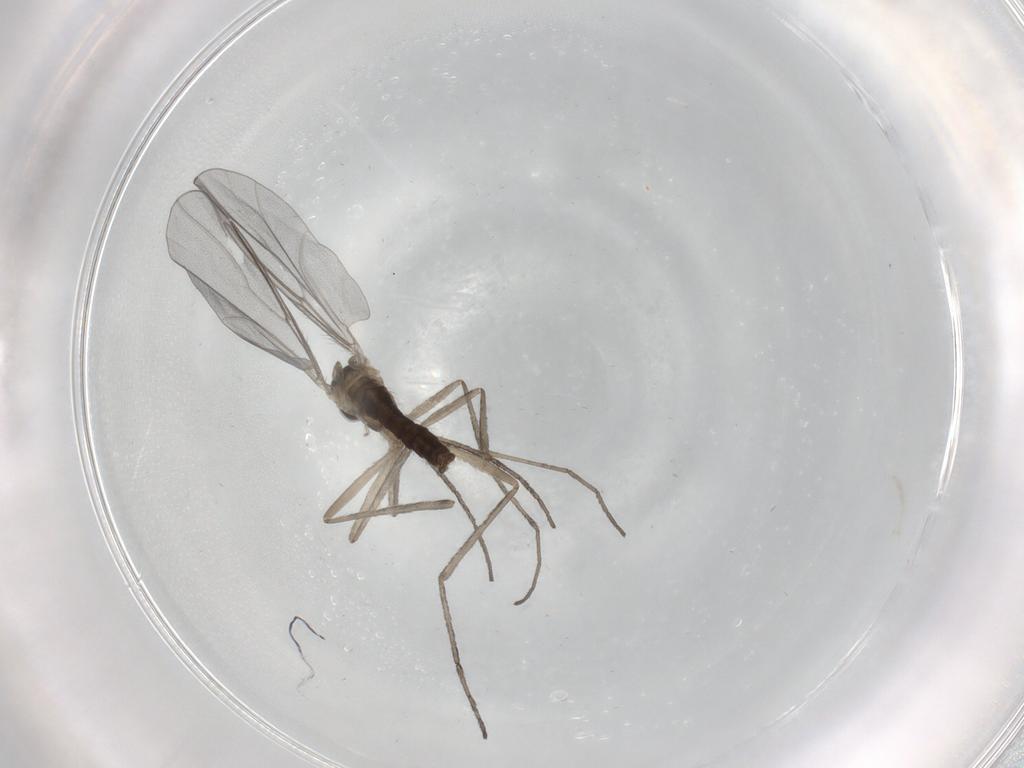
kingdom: Animalia
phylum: Arthropoda
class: Insecta
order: Diptera
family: Cecidomyiidae
